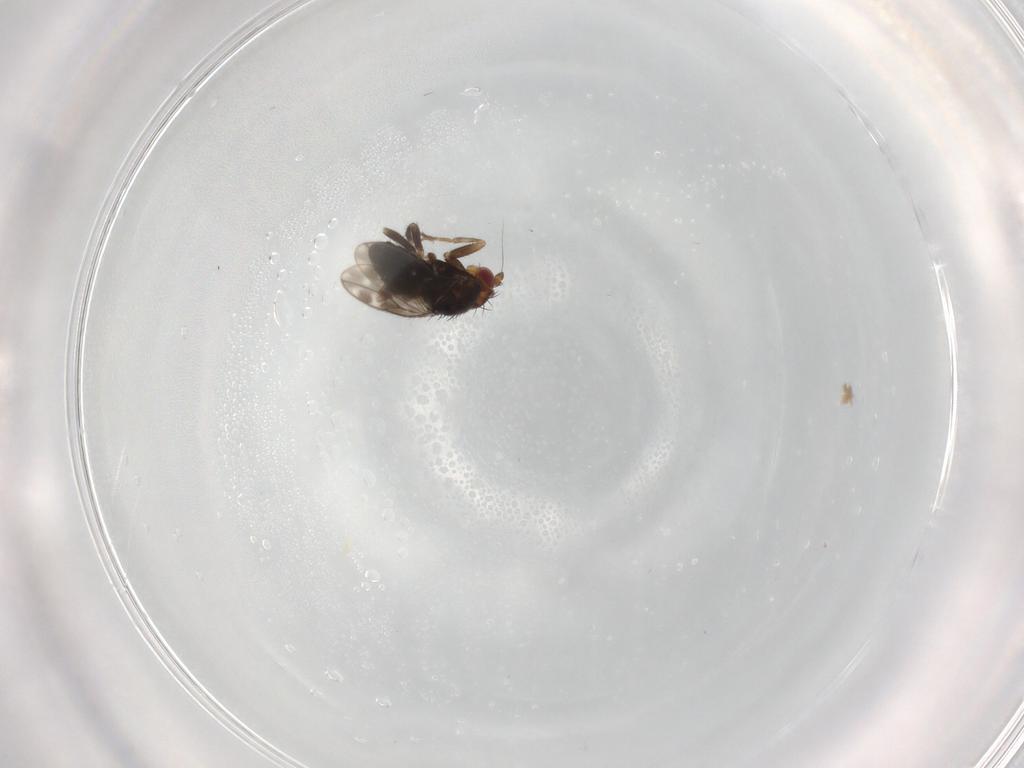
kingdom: Animalia
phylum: Arthropoda
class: Insecta
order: Diptera
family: Sphaeroceridae
